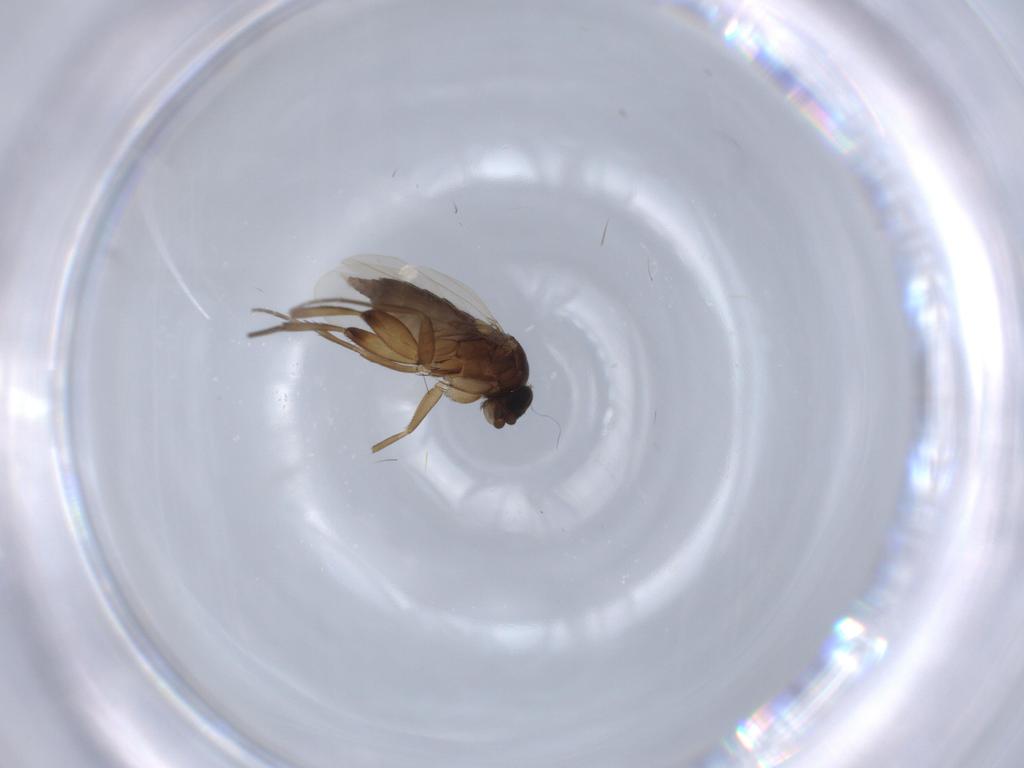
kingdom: Animalia
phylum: Arthropoda
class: Insecta
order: Diptera
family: Phoridae
